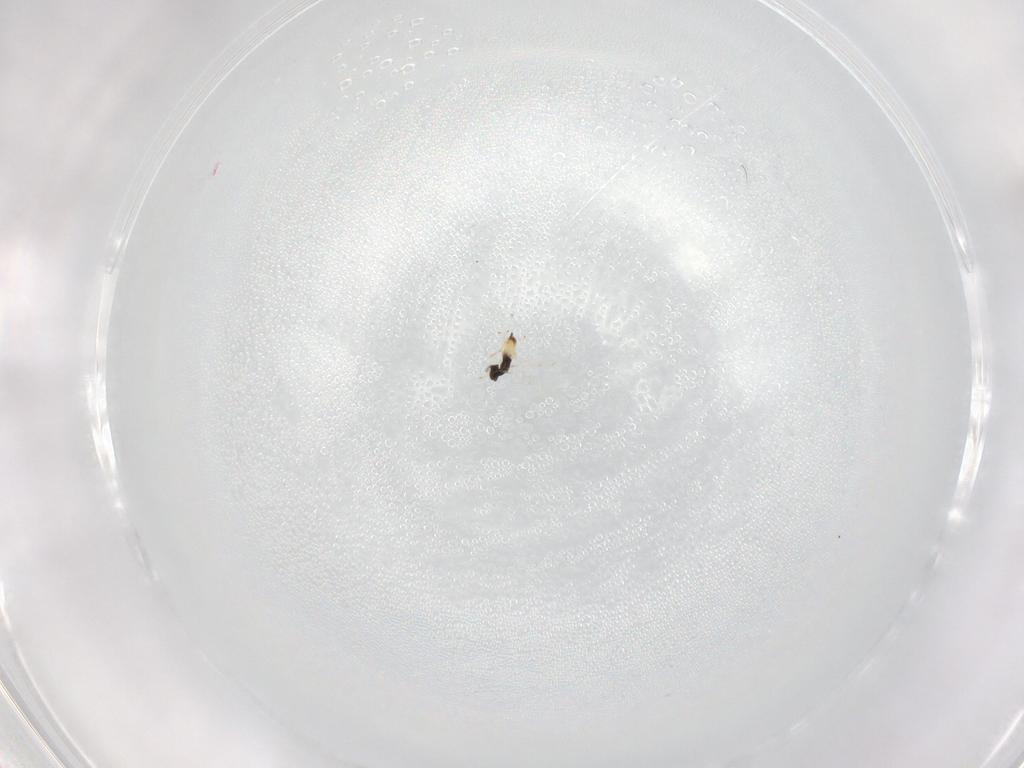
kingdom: Animalia
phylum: Arthropoda
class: Insecta
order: Hymenoptera
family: Eulophidae
